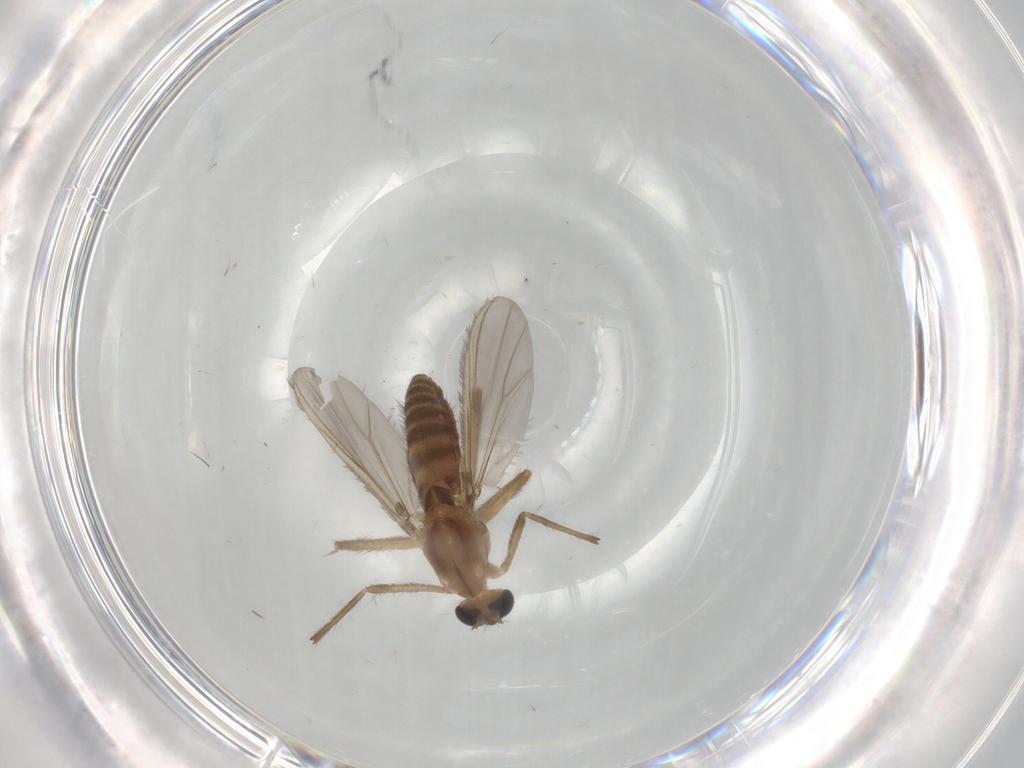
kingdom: Animalia
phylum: Arthropoda
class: Insecta
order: Diptera
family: Chironomidae
